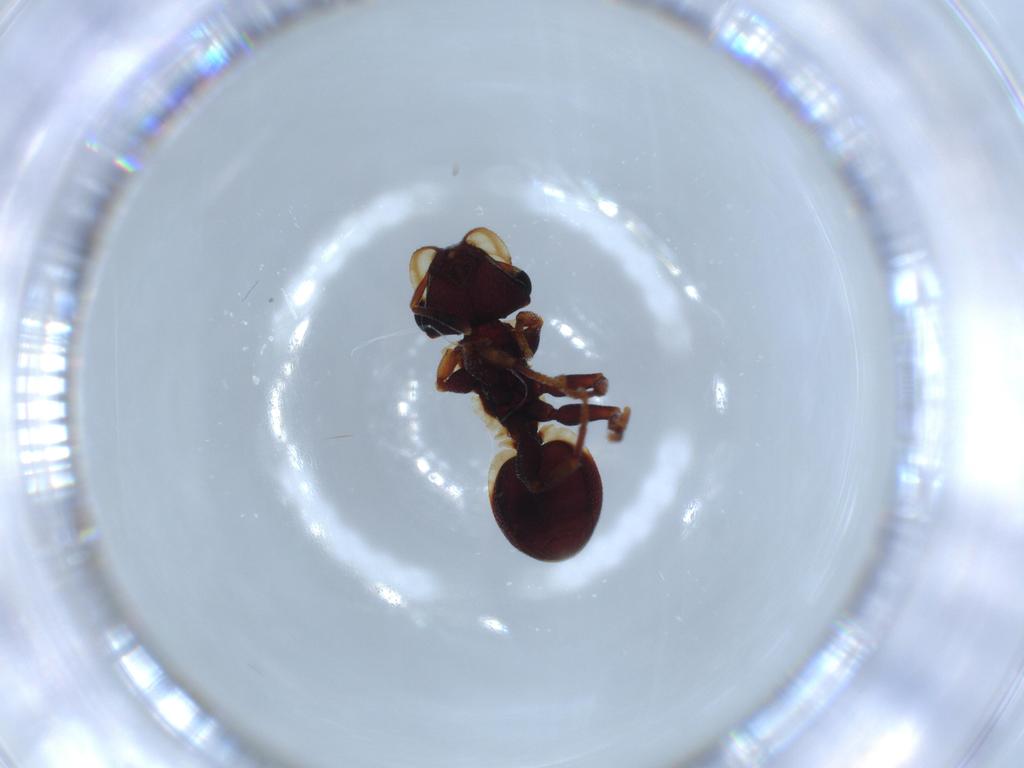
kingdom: Animalia
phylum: Arthropoda
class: Insecta
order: Hymenoptera
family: Formicidae
